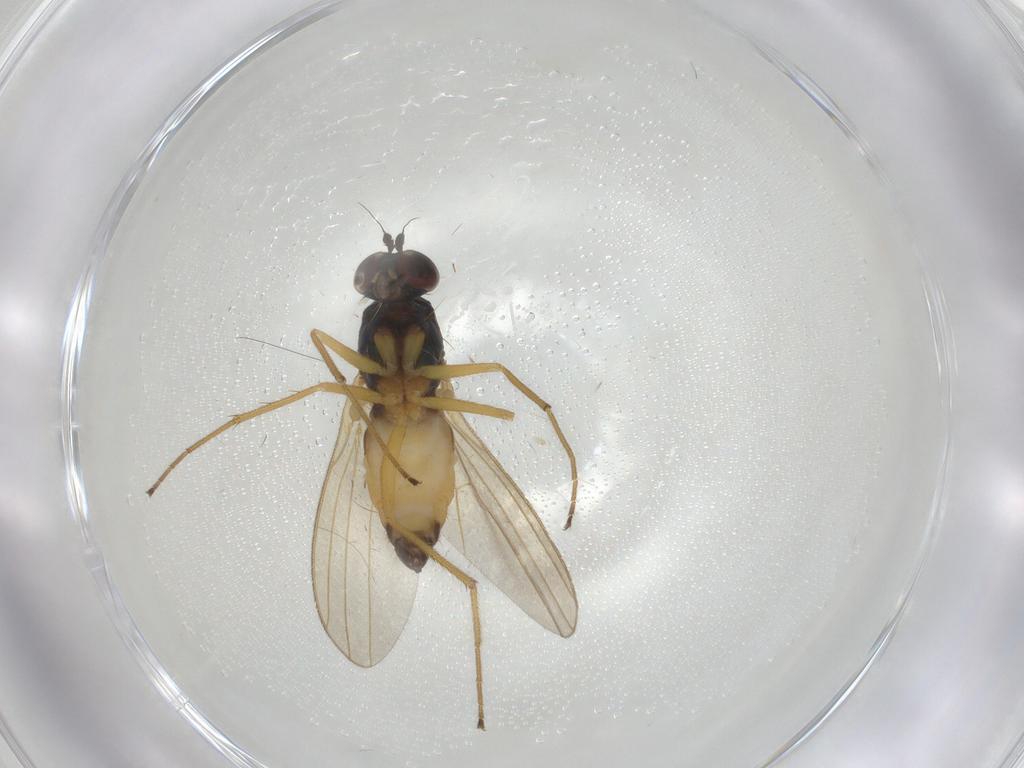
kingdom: Animalia
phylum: Arthropoda
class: Insecta
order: Diptera
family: Dolichopodidae
